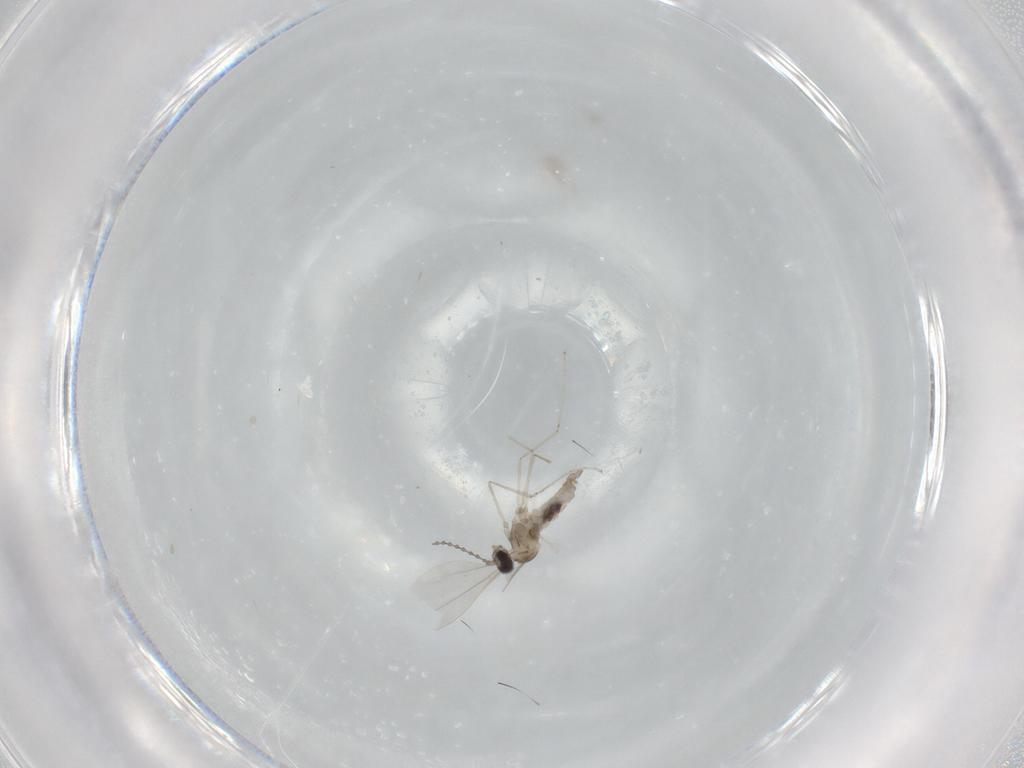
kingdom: Animalia
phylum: Arthropoda
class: Insecta
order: Diptera
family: Cecidomyiidae
